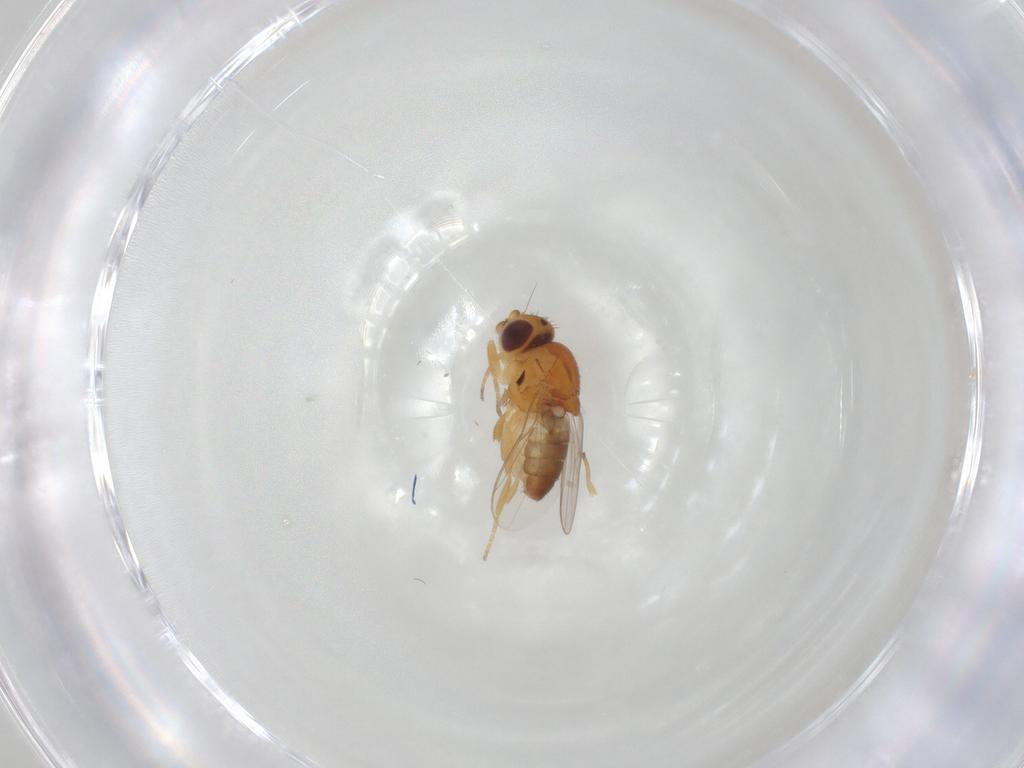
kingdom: Animalia
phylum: Arthropoda
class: Insecta
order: Diptera
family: Chloropidae
